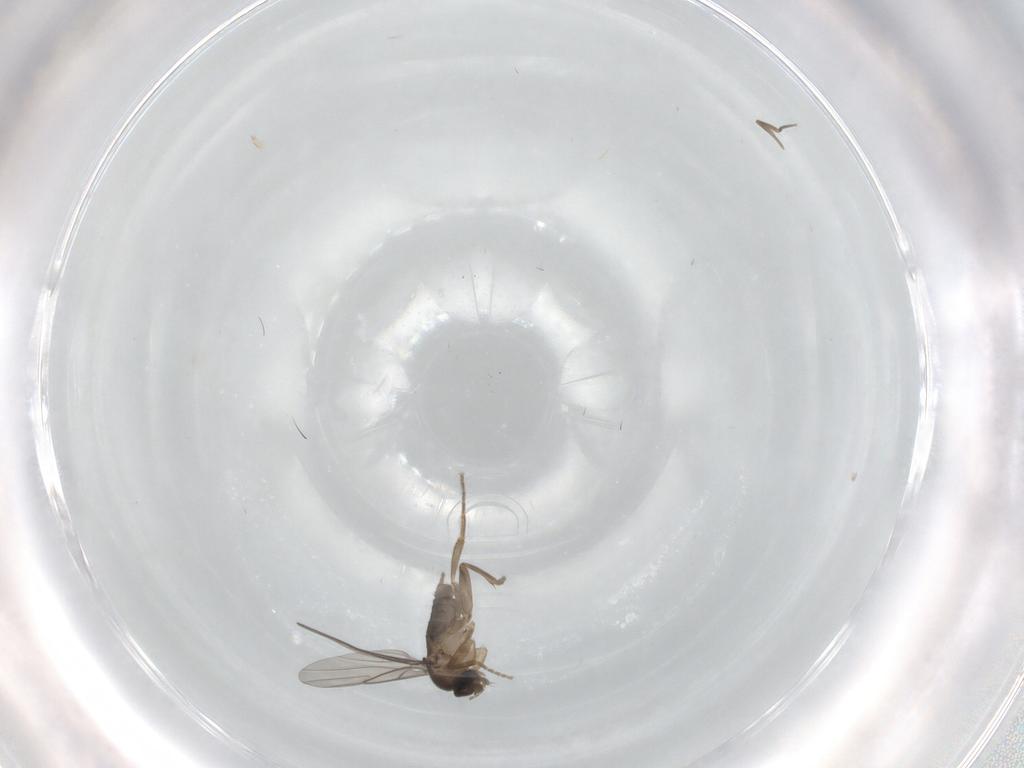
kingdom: Animalia
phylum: Arthropoda
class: Insecta
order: Diptera
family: Phoridae
